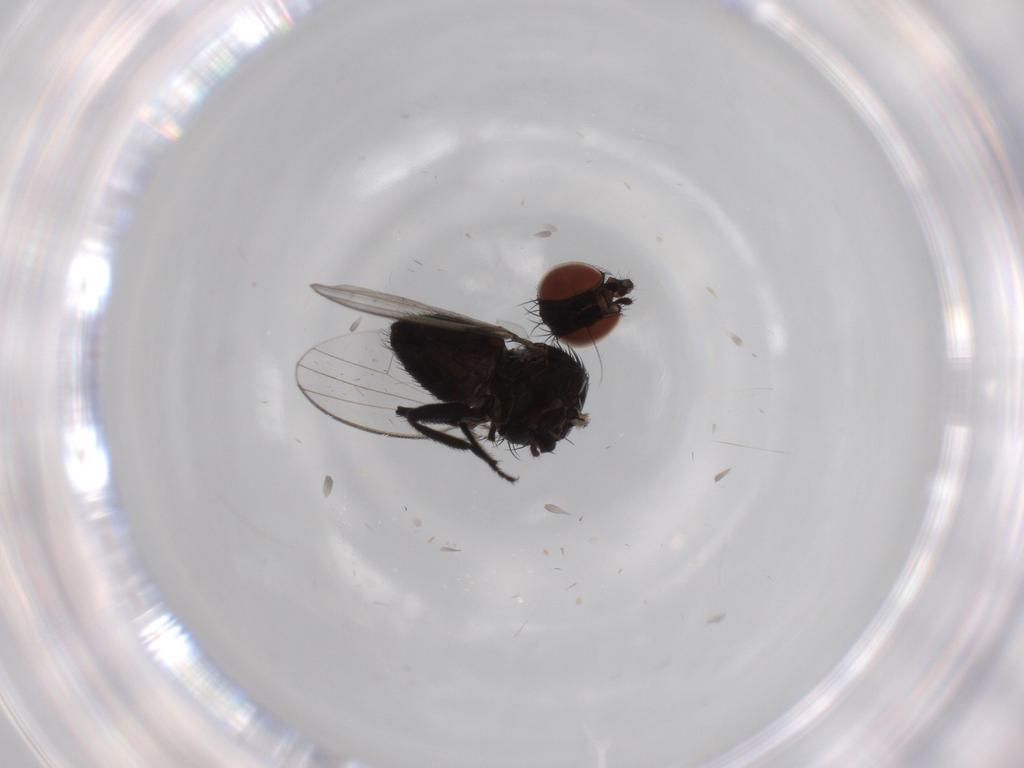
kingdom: Animalia
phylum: Arthropoda
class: Insecta
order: Diptera
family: Milichiidae
